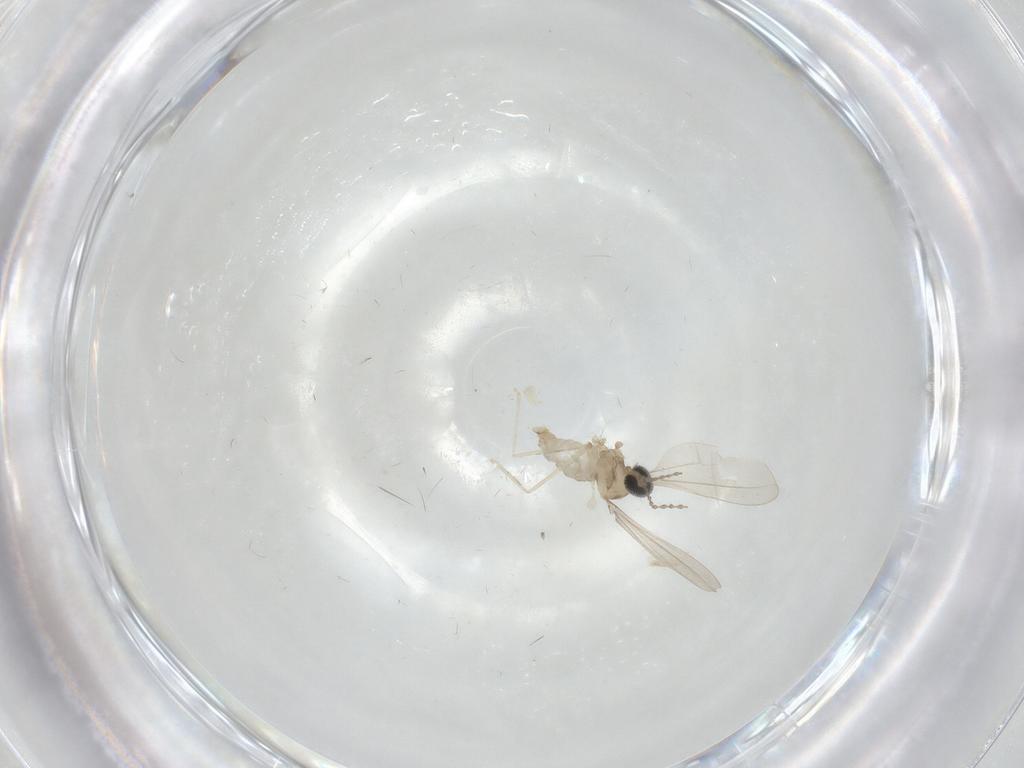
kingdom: Animalia
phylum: Arthropoda
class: Insecta
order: Diptera
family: Cecidomyiidae
